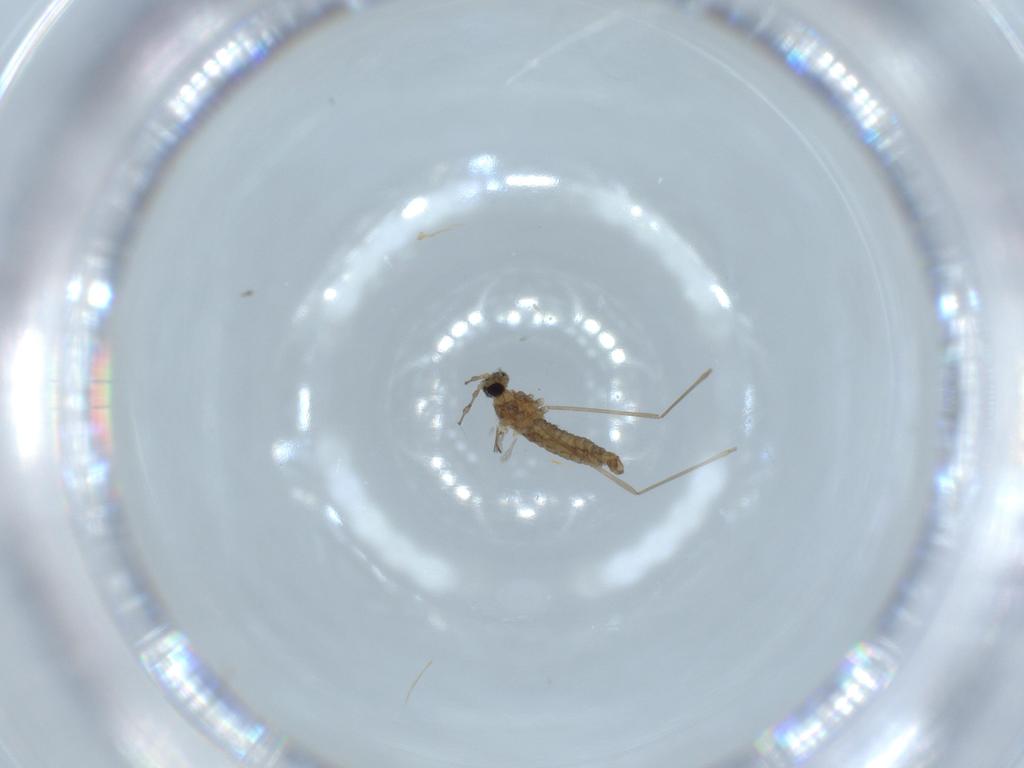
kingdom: Animalia
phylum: Arthropoda
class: Insecta
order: Diptera
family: Cecidomyiidae
